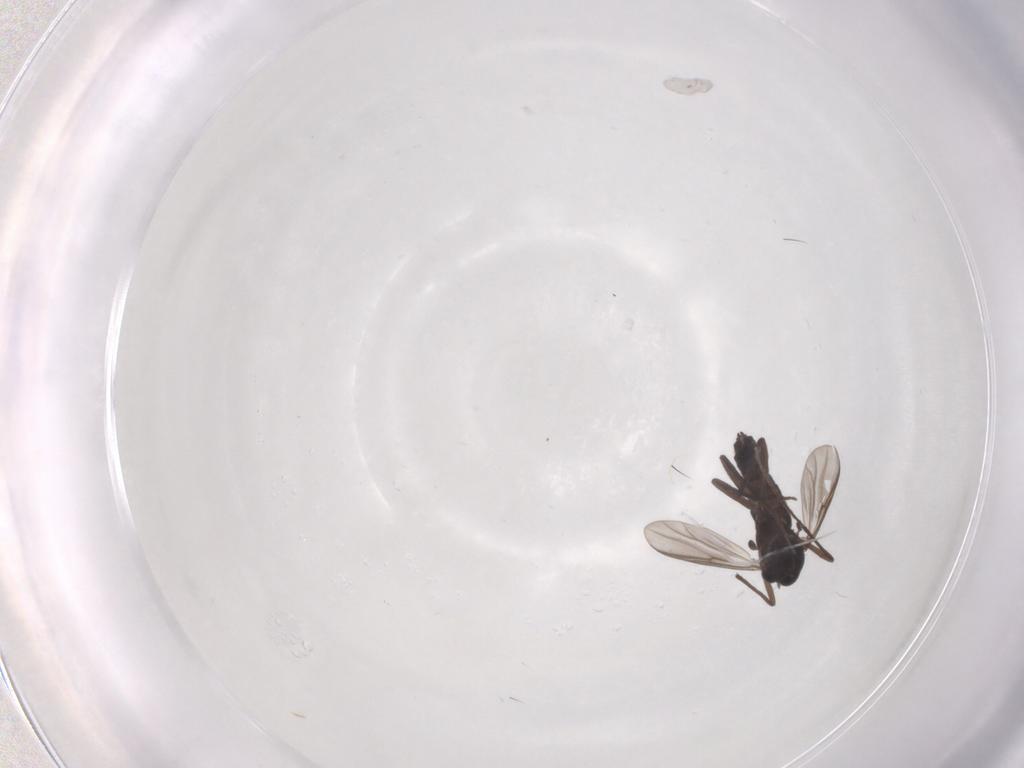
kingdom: Animalia
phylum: Arthropoda
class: Insecta
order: Diptera
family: Chironomidae
